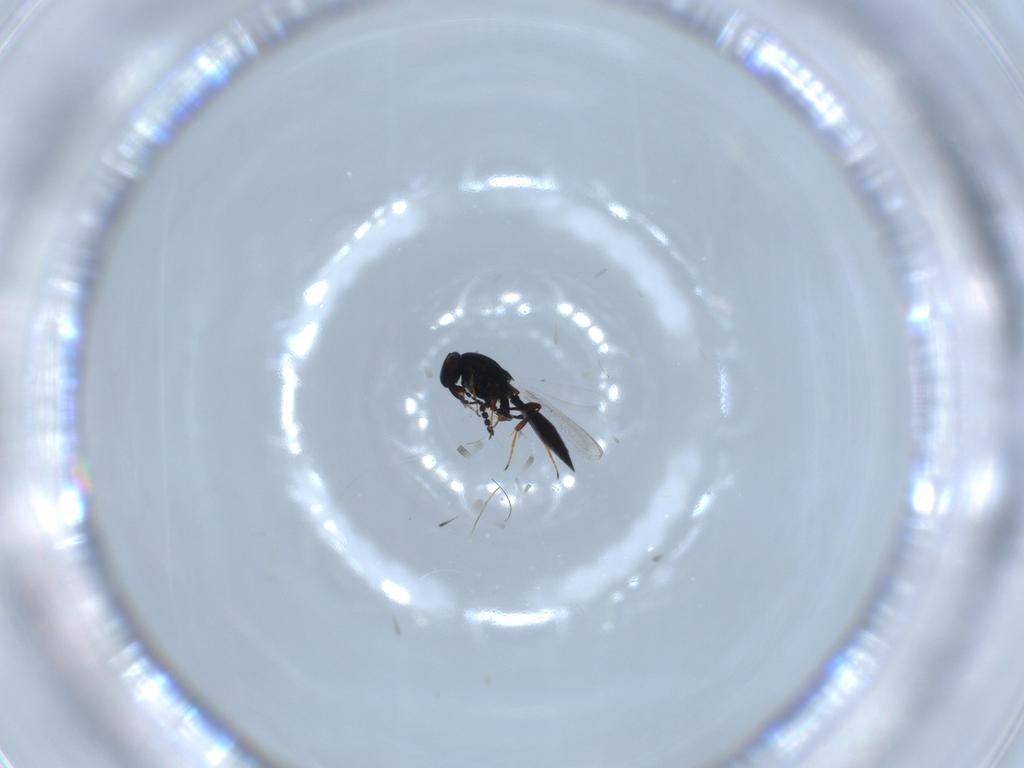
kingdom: Animalia
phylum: Arthropoda
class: Insecta
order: Hymenoptera
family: Platygastridae
